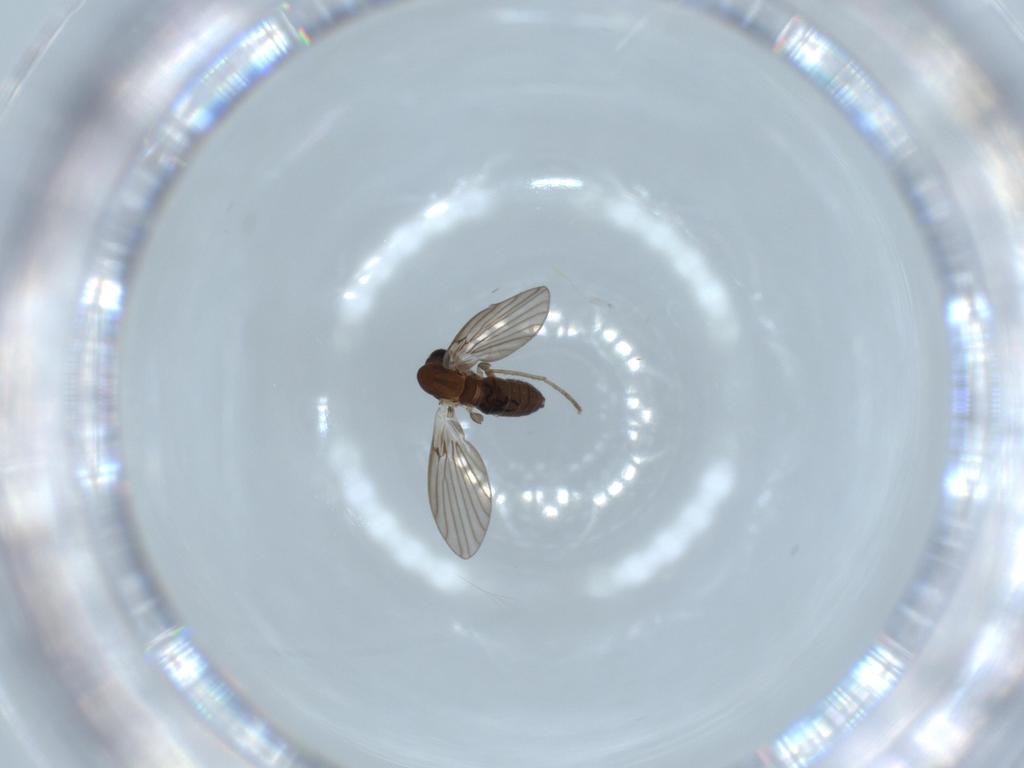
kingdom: Animalia
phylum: Arthropoda
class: Insecta
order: Diptera
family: Psychodidae
